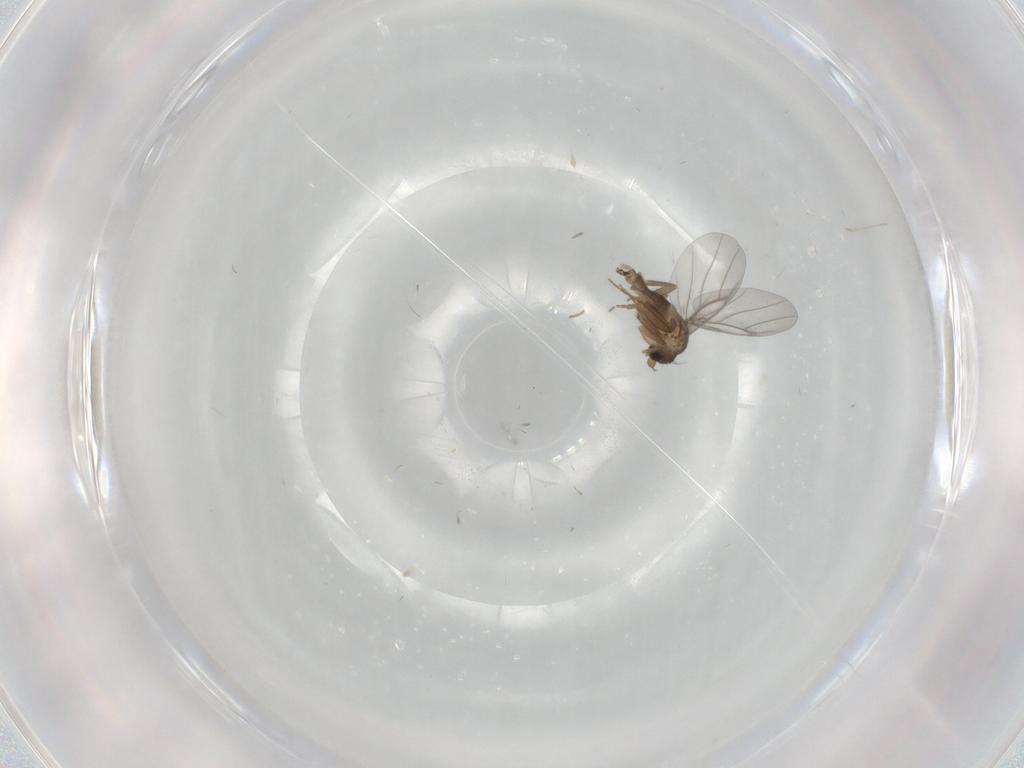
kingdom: Animalia
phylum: Arthropoda
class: Insecta
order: Diptera
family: Cecidomyiidae
